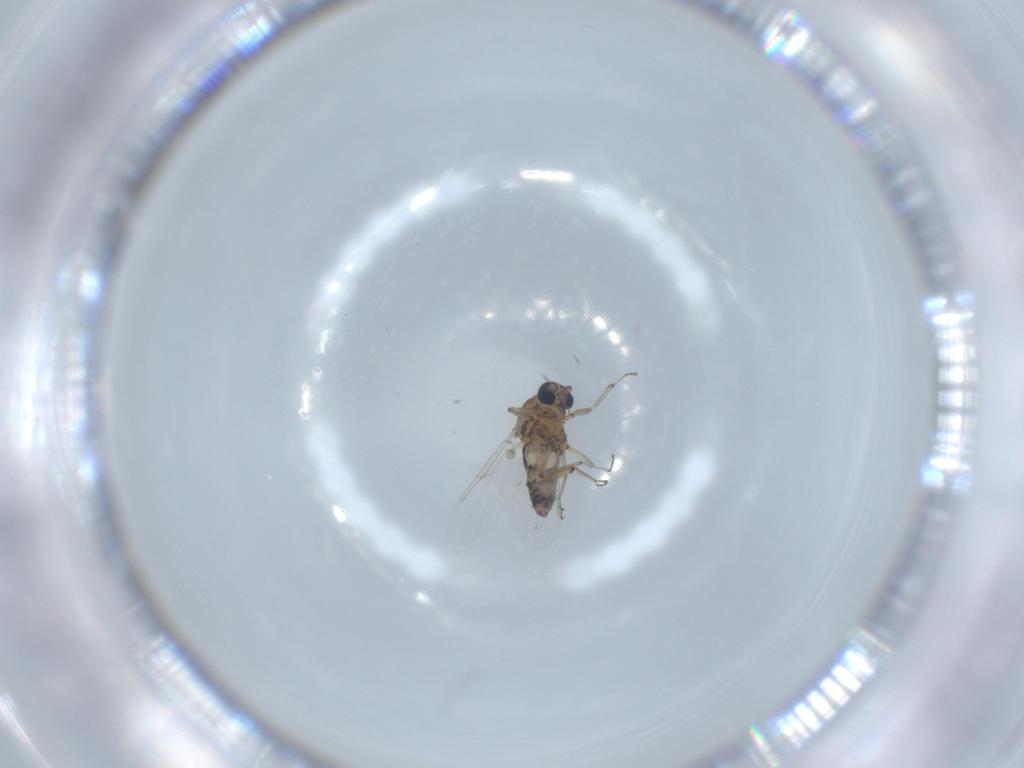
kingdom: Animalia
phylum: Arthropoda
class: Insecta
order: Diptera
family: Ceratopogonidae
